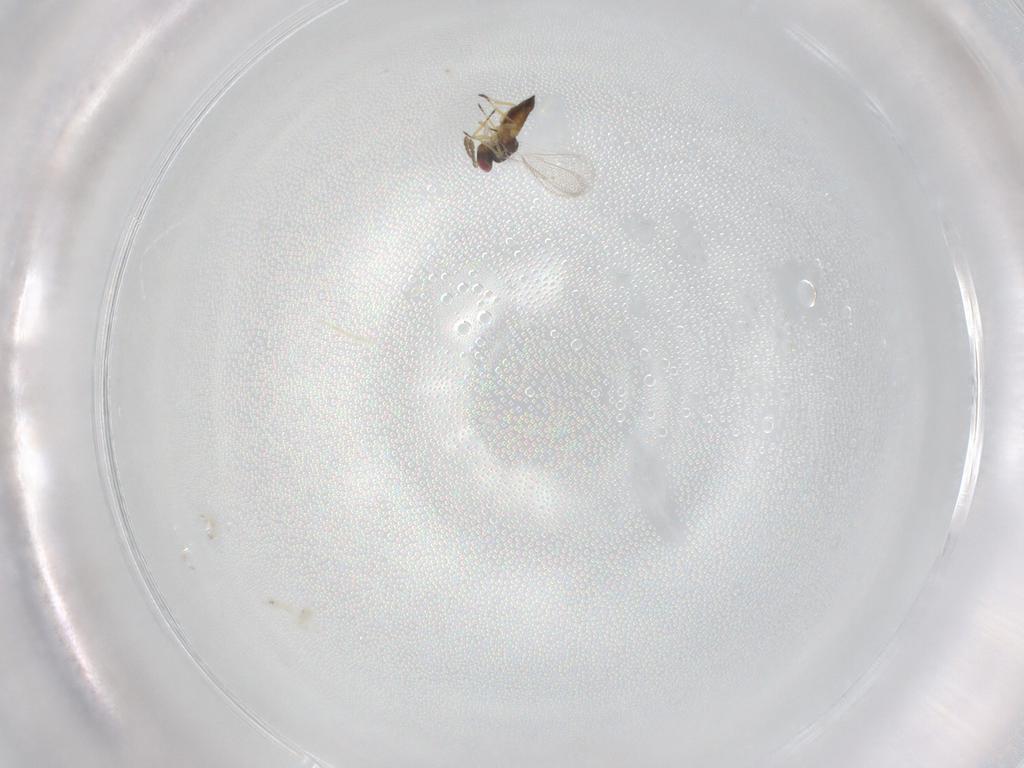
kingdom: Animalia
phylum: Arthropoda
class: Insecta
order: Hymenoptera
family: Eulophidae
